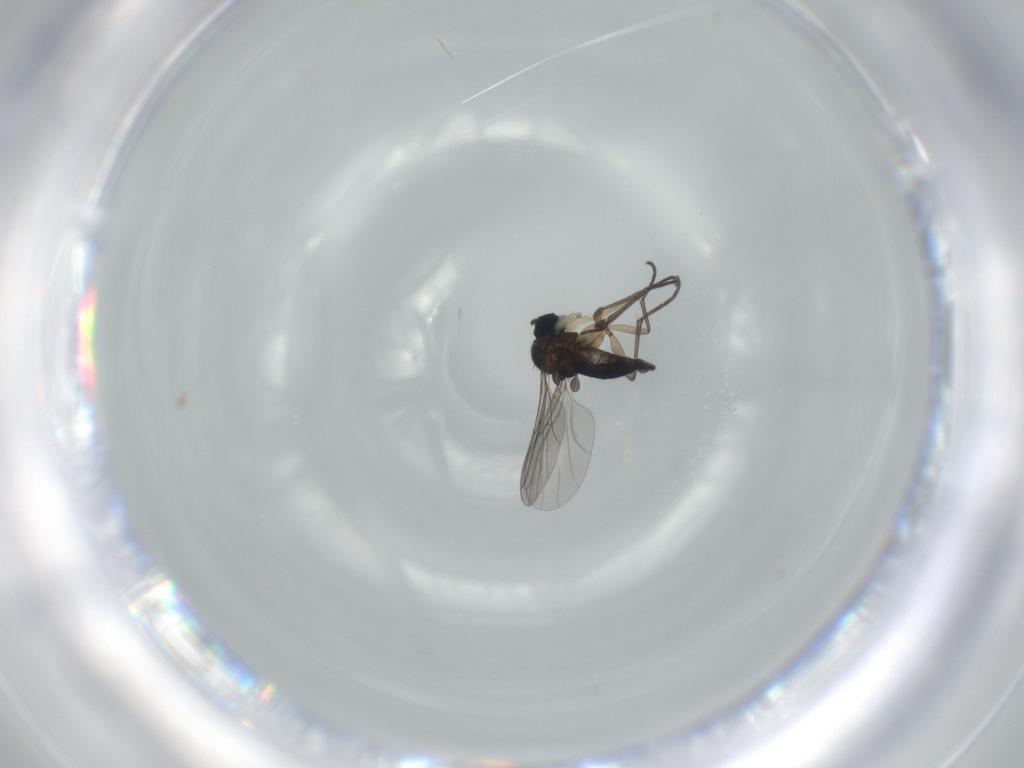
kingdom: Animalia
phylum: Arthropoda
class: Insecta
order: Diptera
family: Sciaridae
